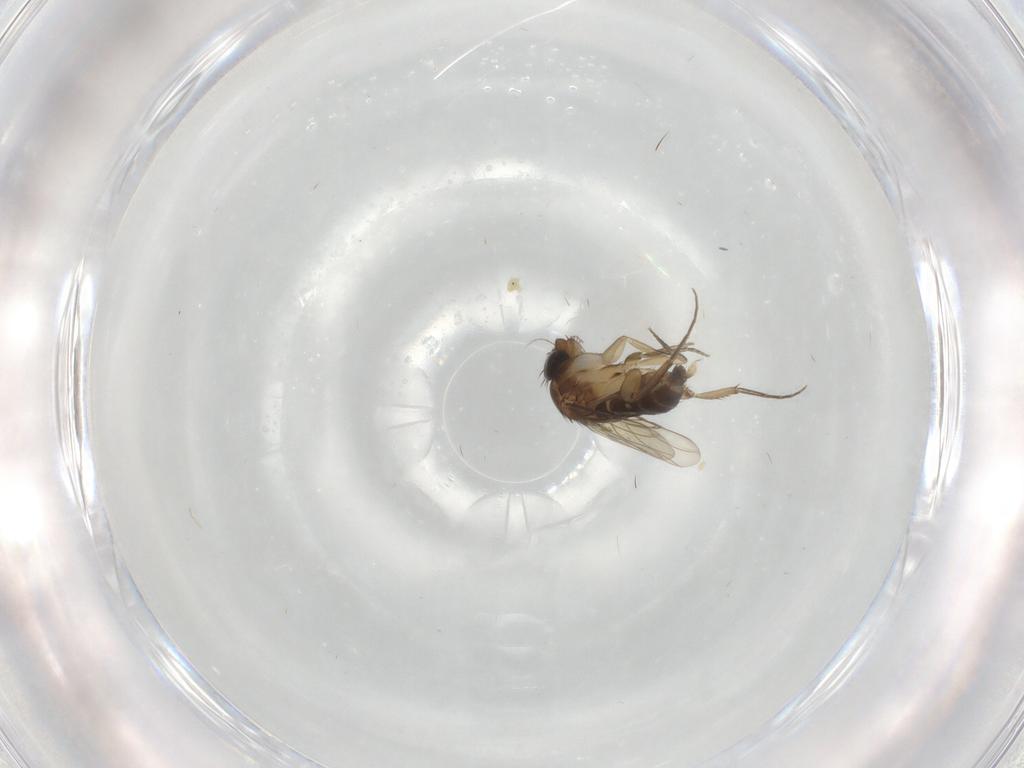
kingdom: Animalia
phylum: Arthropoda
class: Insecta
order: Diptera
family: Phoridae
